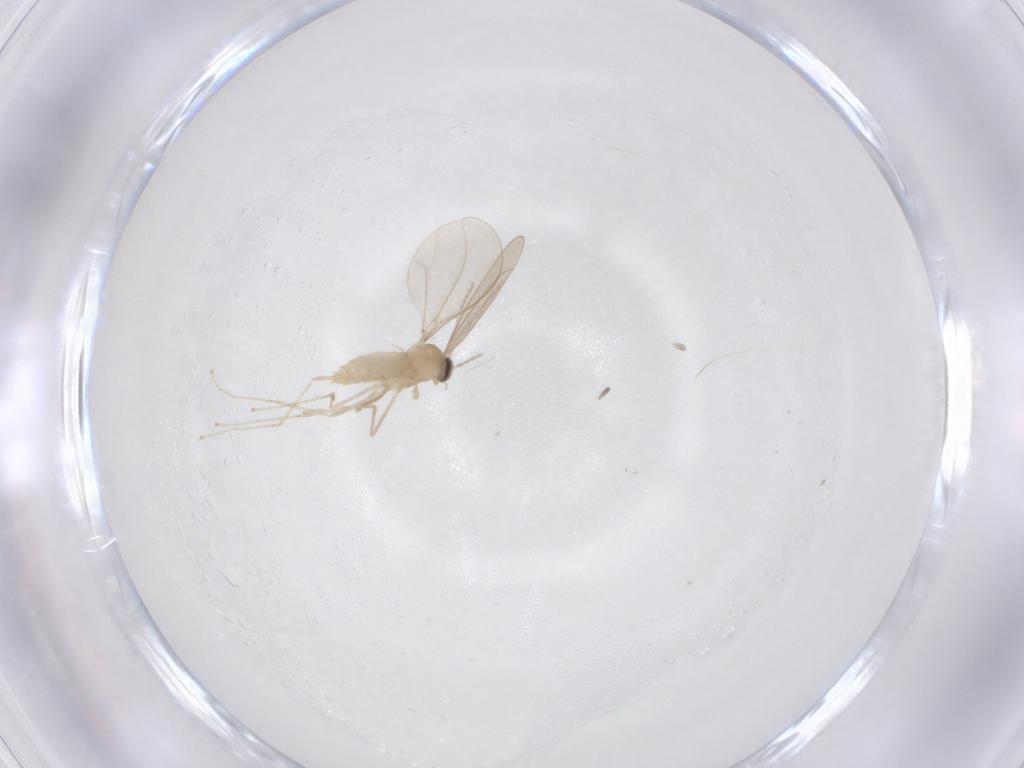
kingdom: Animalia
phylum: Arthropoda
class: Insecta
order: Diptera
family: Cecidomyiidae
